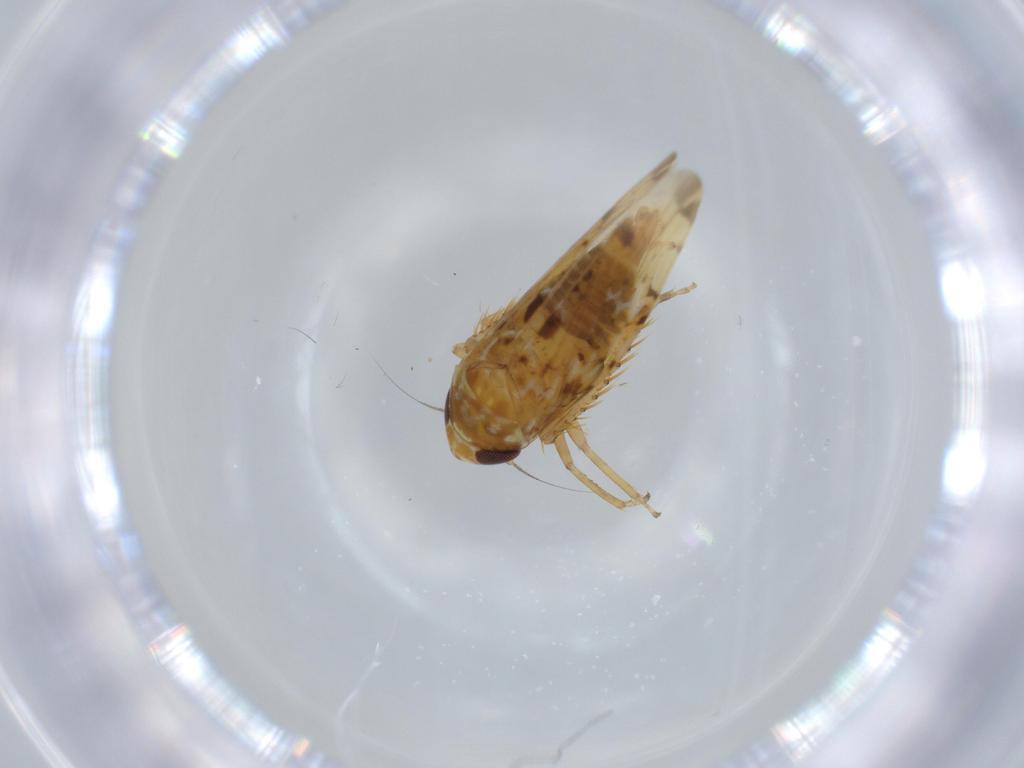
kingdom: Animalia
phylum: Arthropoda
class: Insecta
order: Hemiptera
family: Cicadellidae
